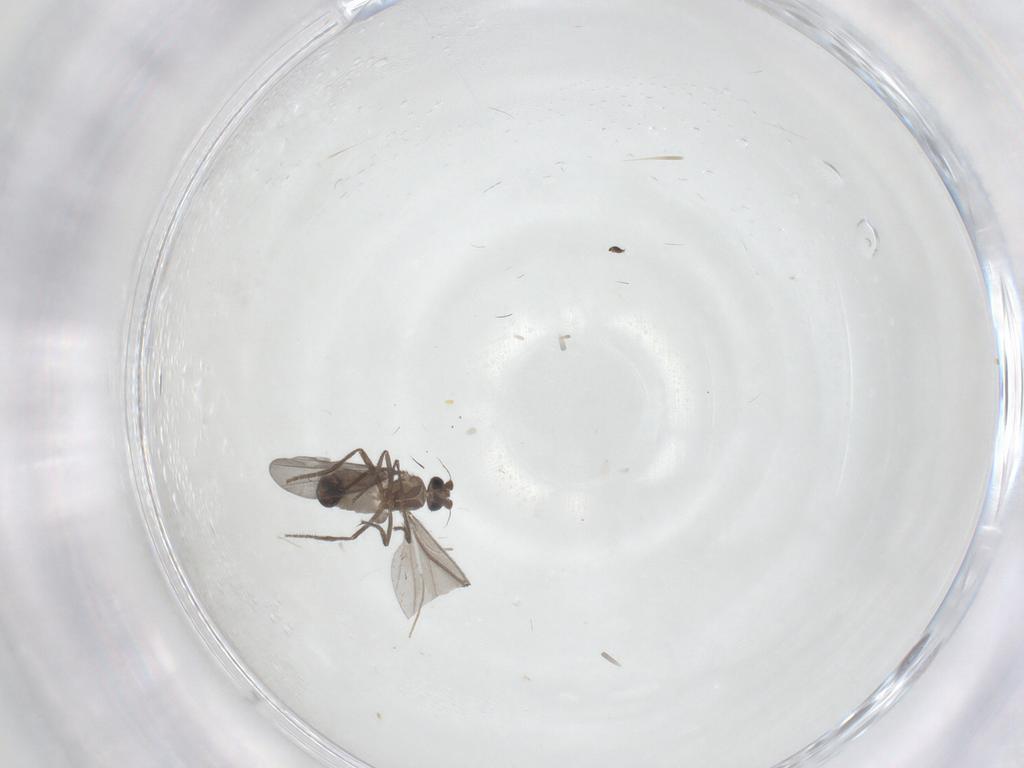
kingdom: Animalia
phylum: Arthropoda
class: Insecta
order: Diptera
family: Chironomidae
